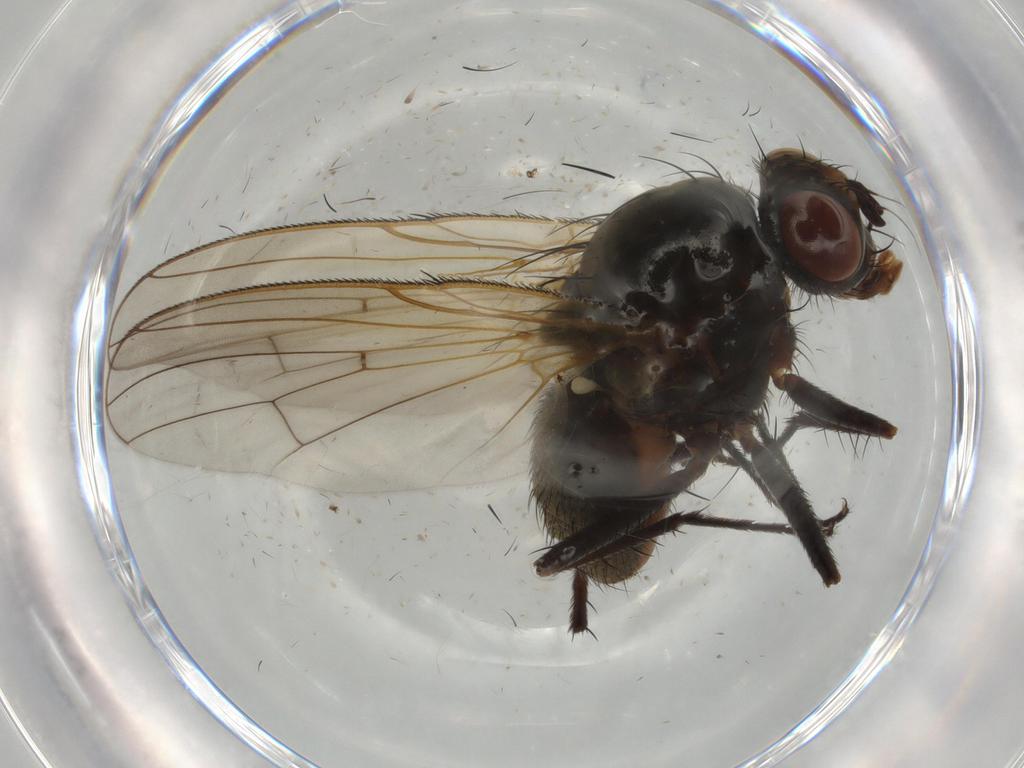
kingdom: Animalia
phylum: Arthropoda
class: Insecta
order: Diptera
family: Anthomyiidae
